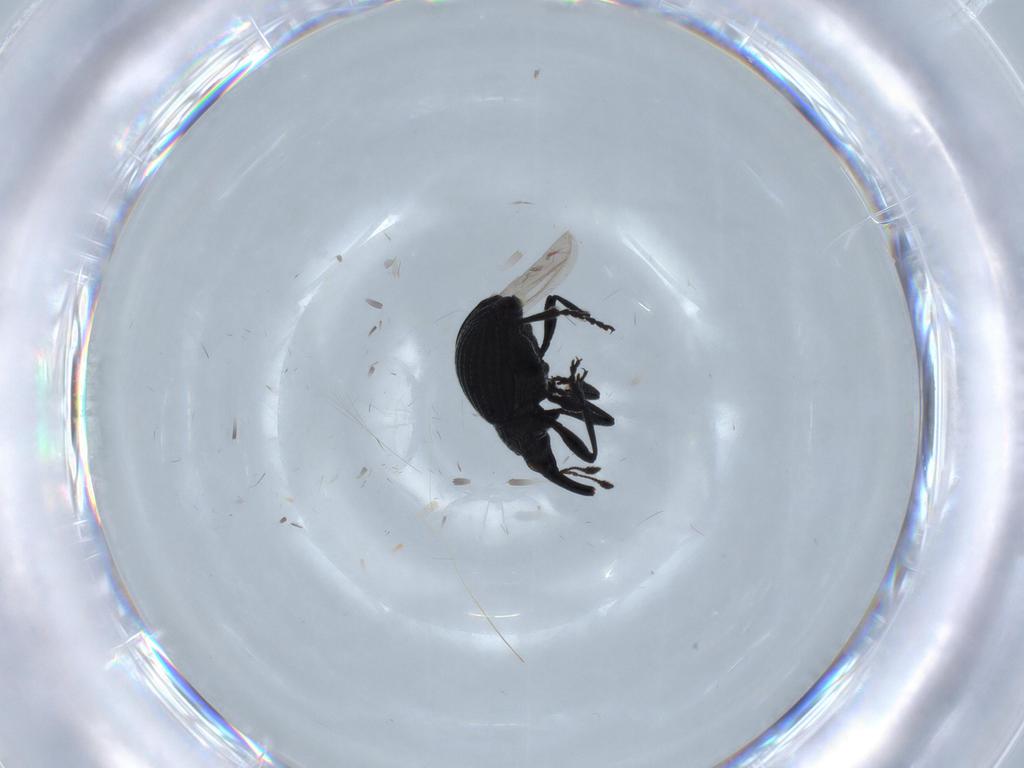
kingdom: Animalia
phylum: Arthropoda
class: Insecta
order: Coleoptera
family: Brentidae
